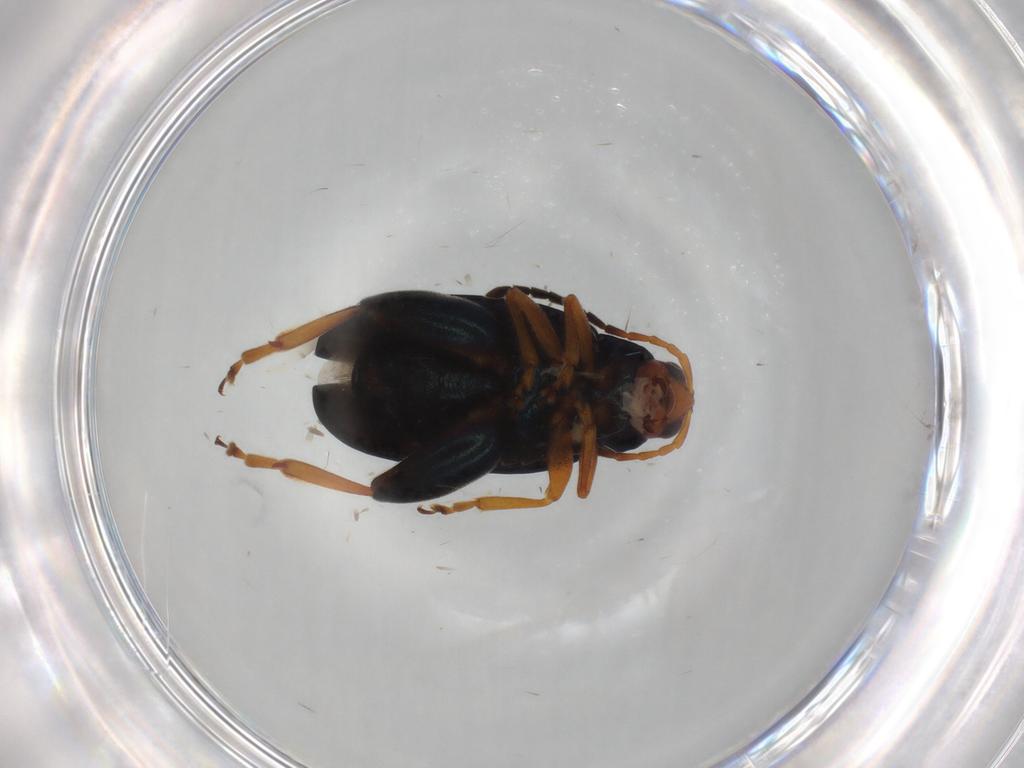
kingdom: Animalia
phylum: Arthropoda
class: Insecta
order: Coleoptera
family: Chrysomelidae
